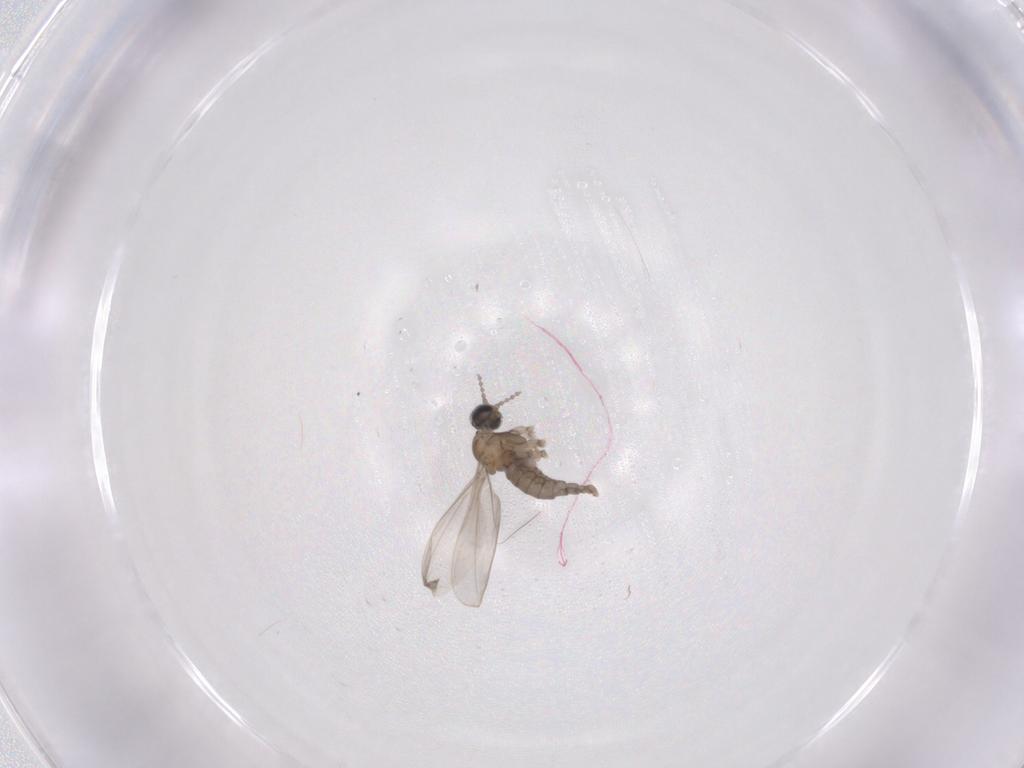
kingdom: Animalia
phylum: Arthropoda
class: Insecta
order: Diptera
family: Cecidomyiidae
